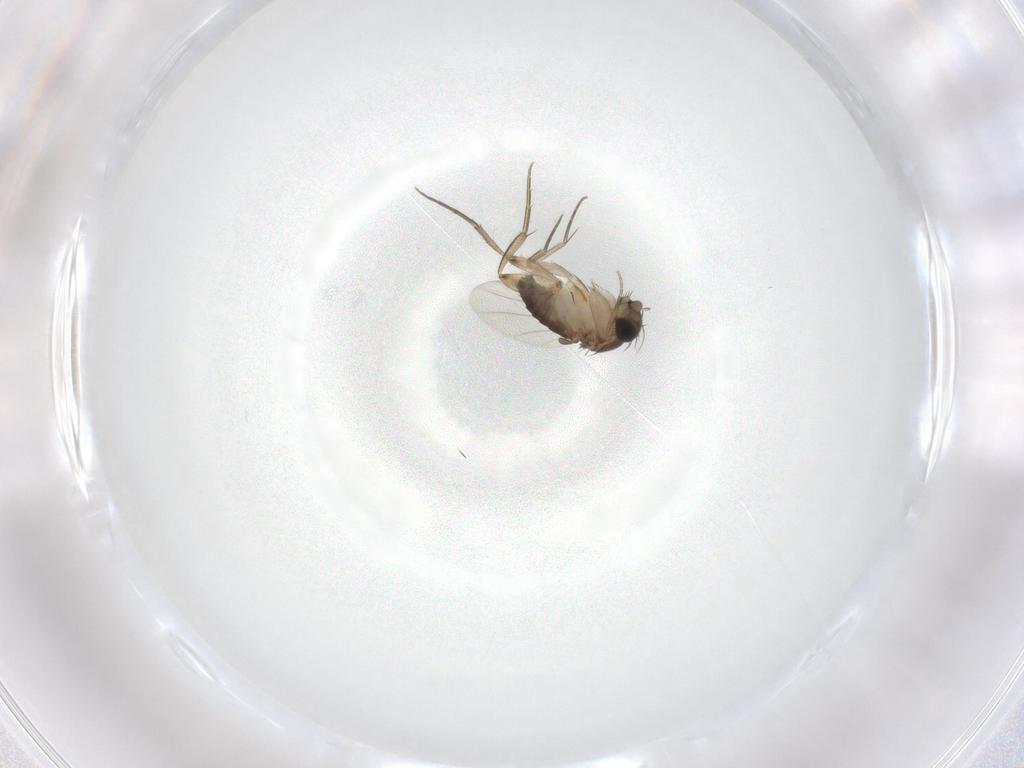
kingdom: Animalia
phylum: Arthropoda
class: Insecta
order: Diptera
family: Phoridae
